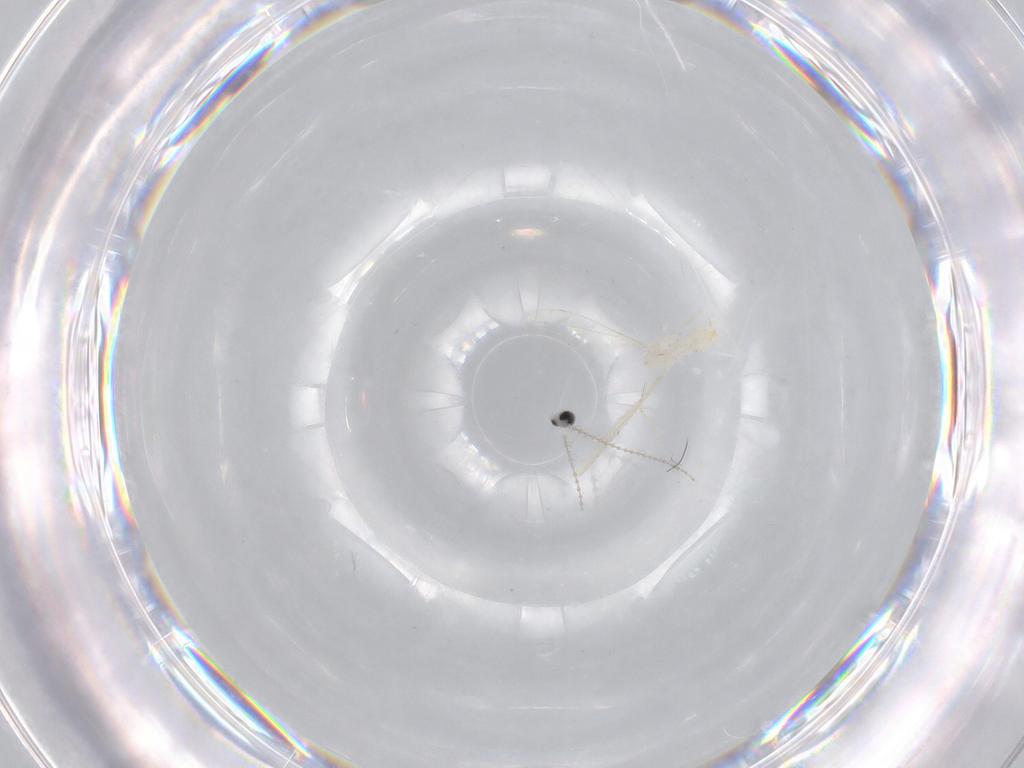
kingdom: Animalia
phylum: Arthropoda
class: Insecta
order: Diptera
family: Cecidomyiidae
